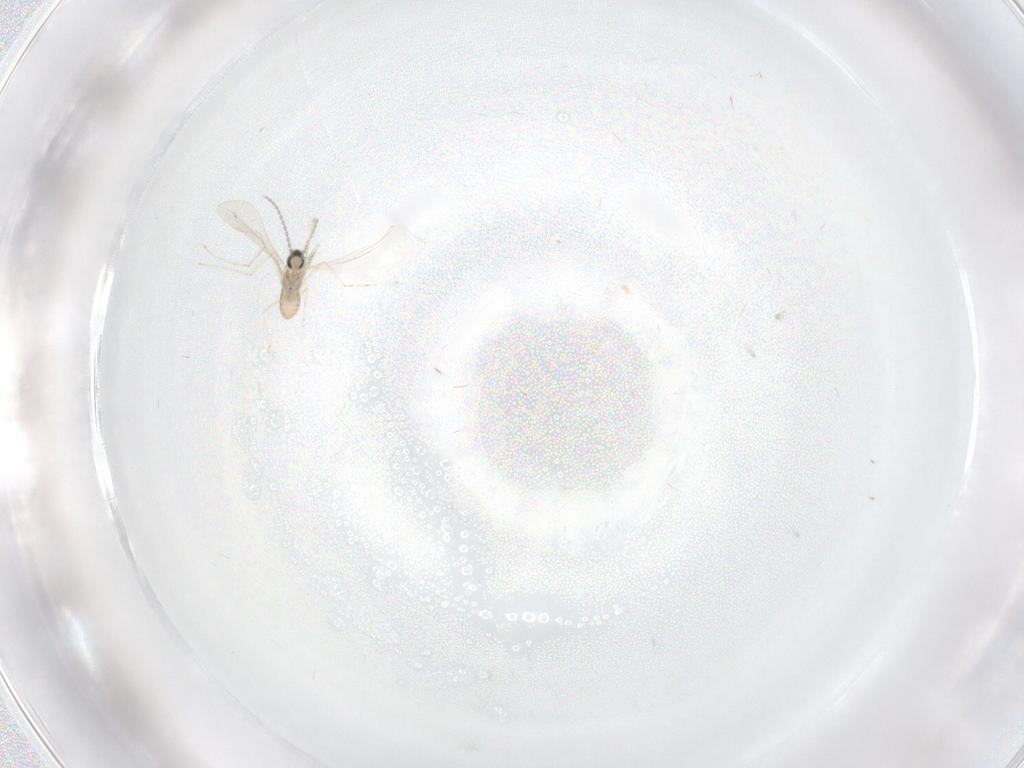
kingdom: Animalia
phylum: Arthropoda
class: Insecta
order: Diptera
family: Cecidomyiidae
